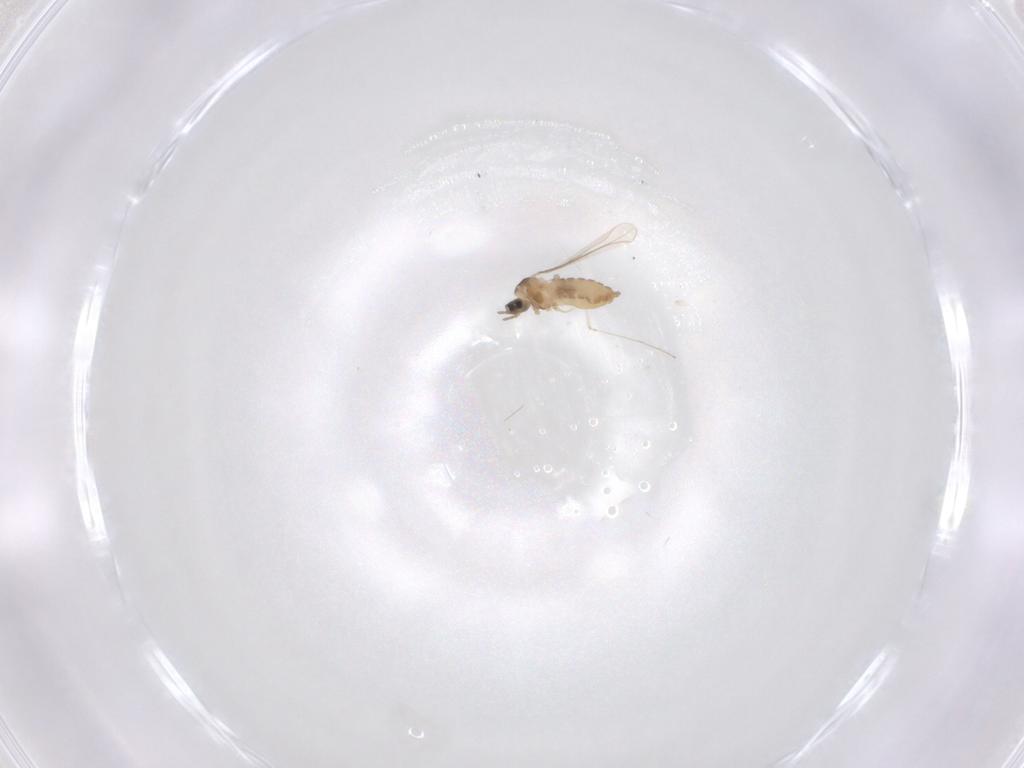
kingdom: Animalia
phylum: Arthropoda
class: Insecta
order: Diptera
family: Cecidomyiidae
